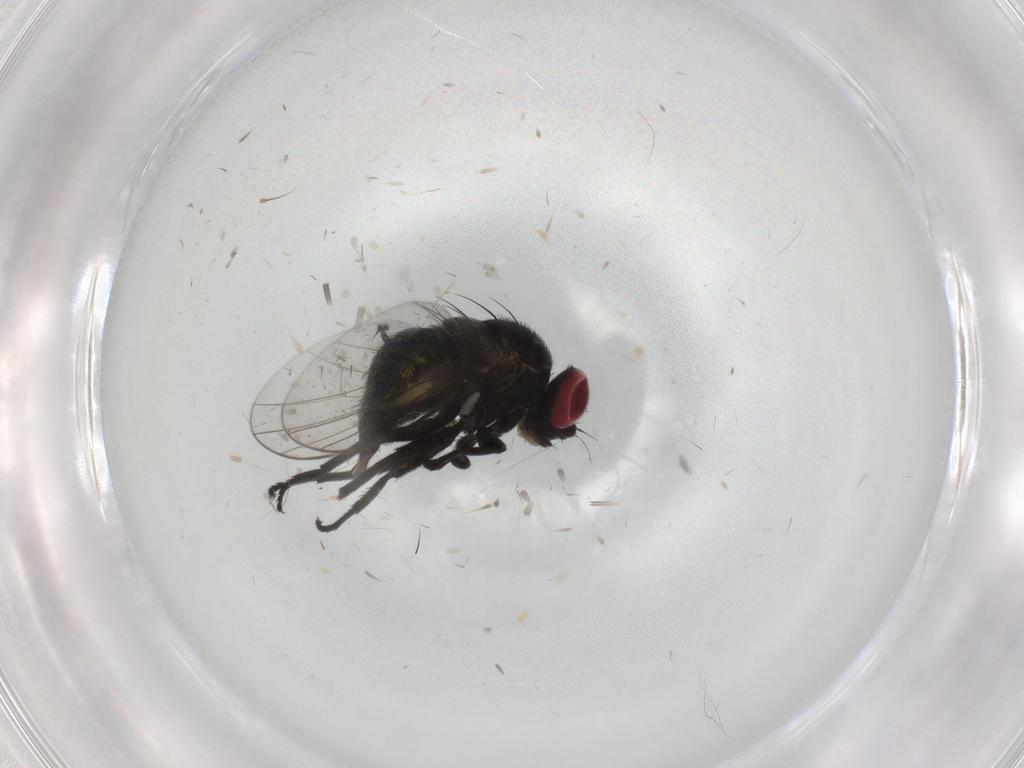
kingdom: Animalia
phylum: Arthropoda
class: Insecta
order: Diptera
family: Agromyzidae
